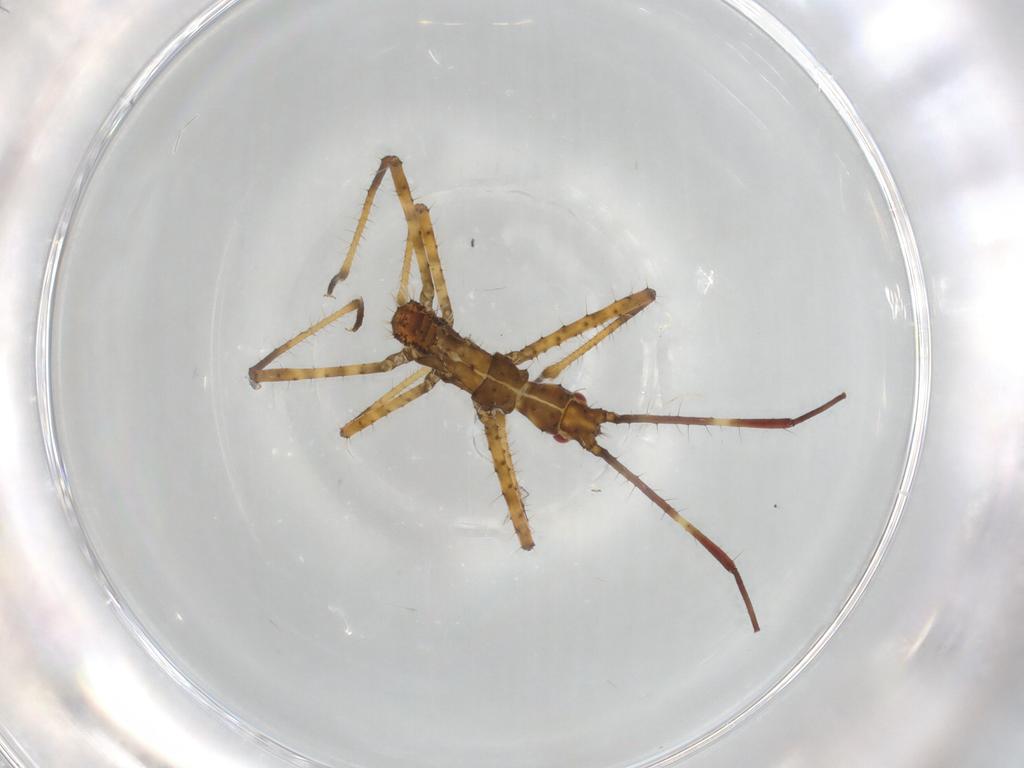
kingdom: Animalia
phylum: Arthropoda
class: Insecta
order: Hemiptera
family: Reduviidae
